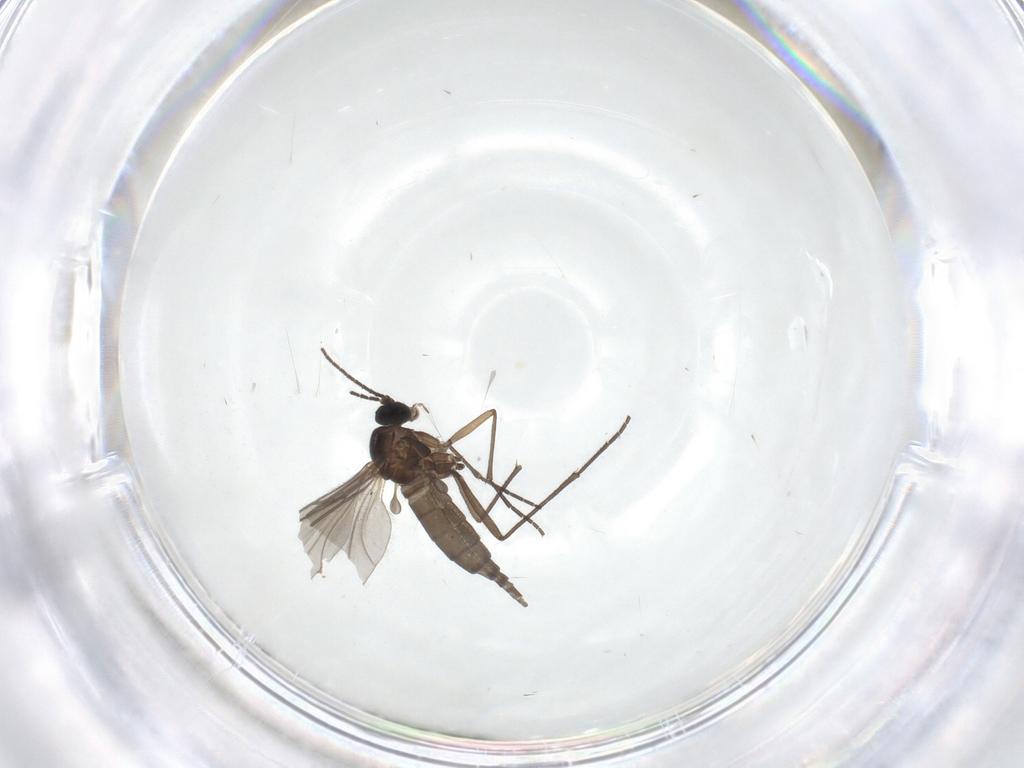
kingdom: Animalia
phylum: Arthropoda
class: Insecta
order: Diptera
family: Sciaridae
